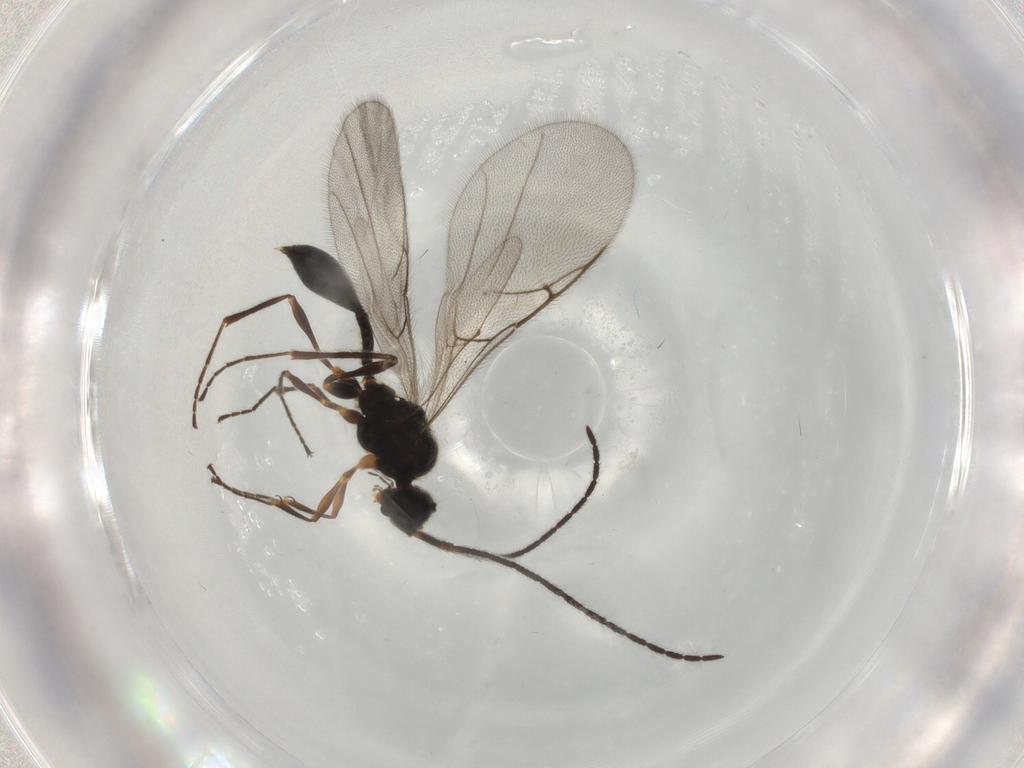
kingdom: Animalia
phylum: Arthropoda
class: Insecta
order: Hymenoptera
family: Diapriidae
